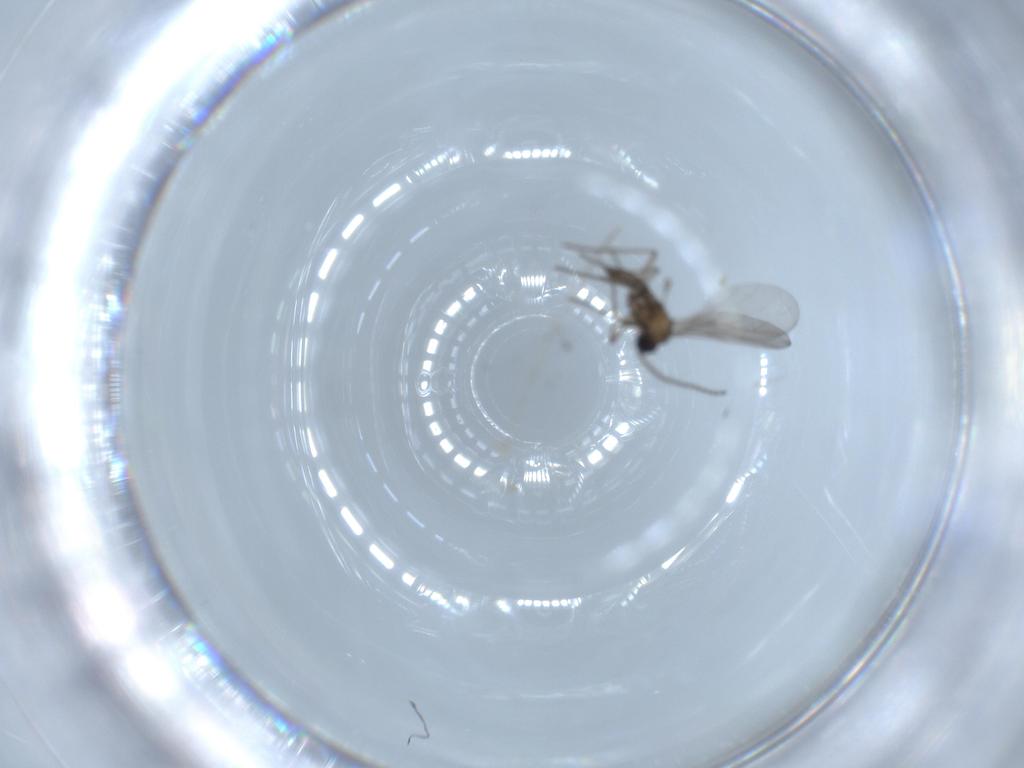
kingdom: Animalia
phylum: Arthropoda
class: Insecta
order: Diptera
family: Sciaridae
